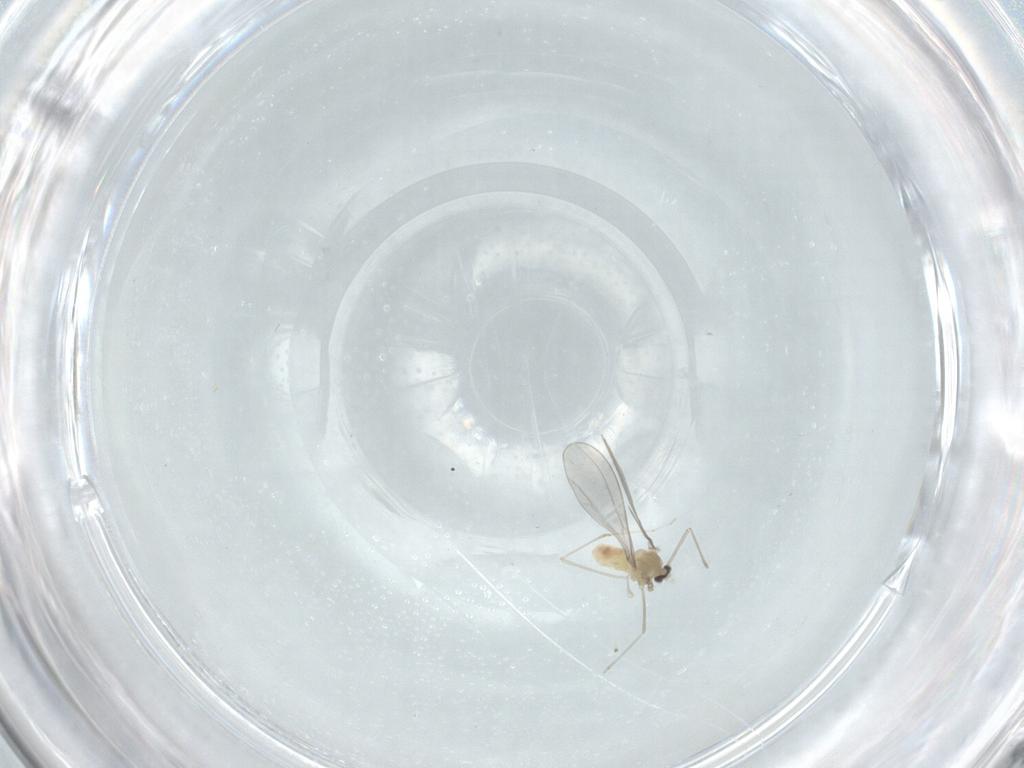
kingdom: Animalia
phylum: Arthropoda
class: Insecta
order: Diptera
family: Cecidomyiidae
